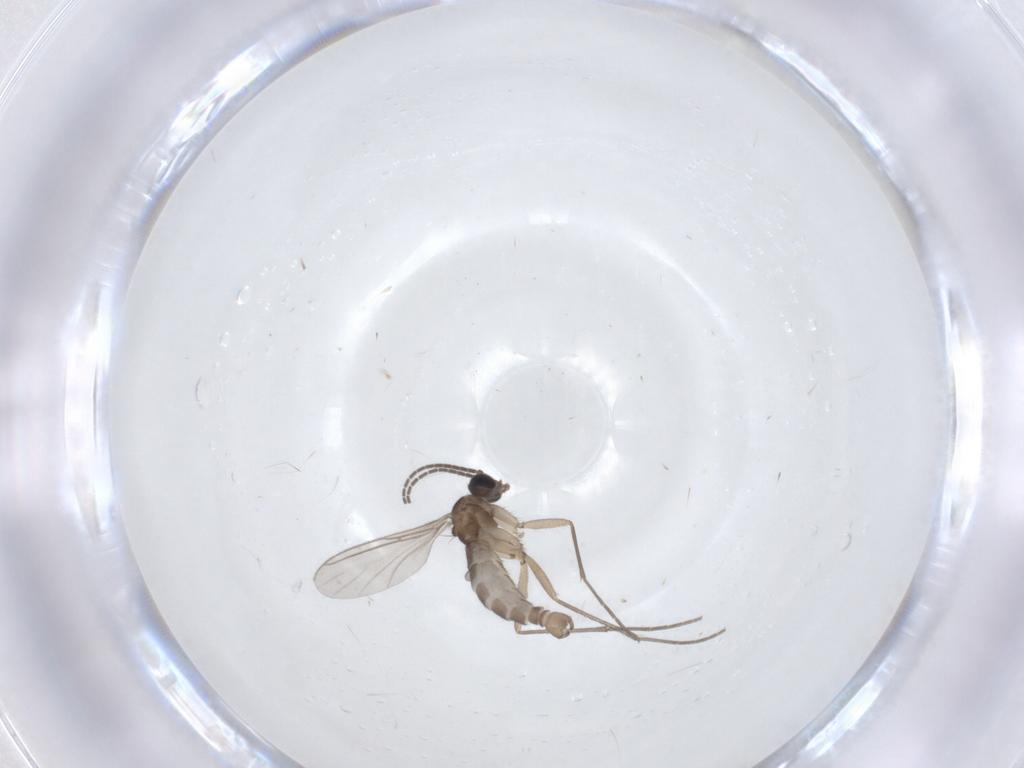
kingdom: Animalia
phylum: Arthropoda
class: Insecta
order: Diptera
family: Sciaridae
